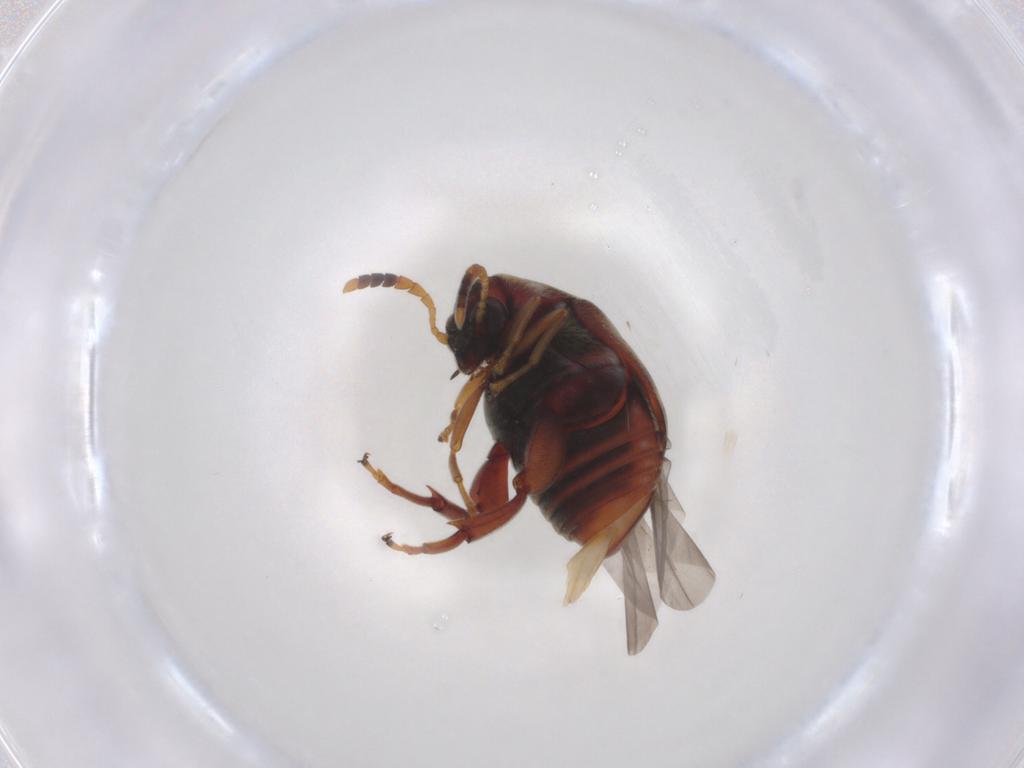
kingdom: Animalia
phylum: Arthropoda
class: Insecta
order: Coleoptera
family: Chrysomelidae
